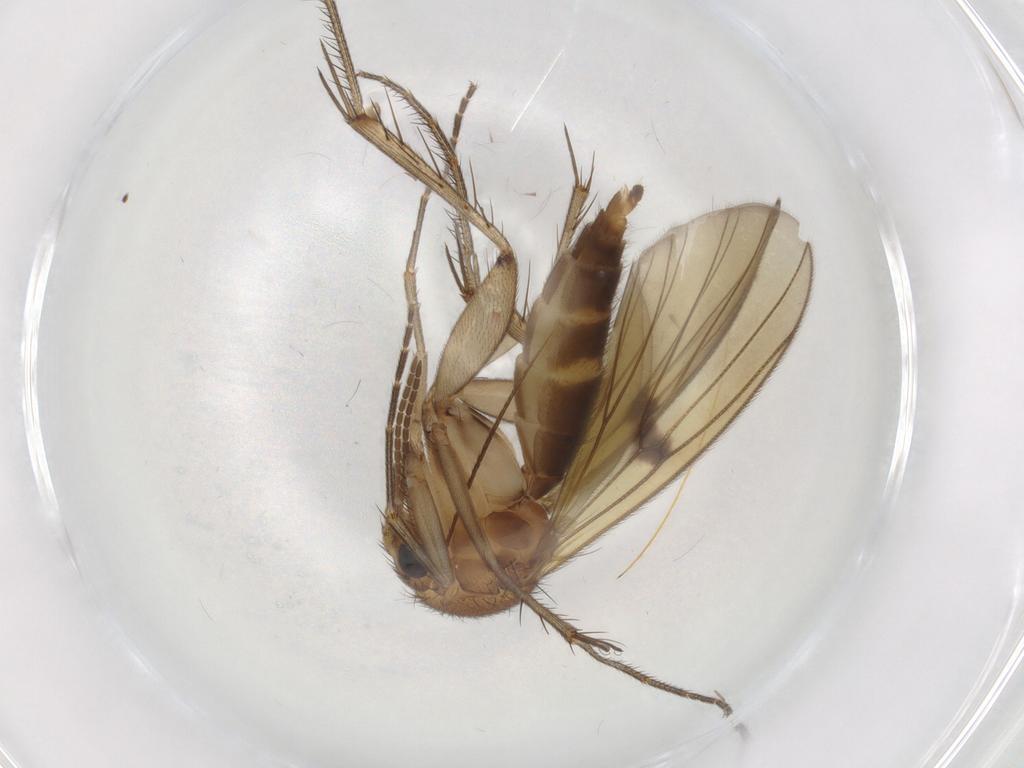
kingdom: Animalia
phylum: Arthropoda
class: Insecta
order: Diptera
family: Mycetophilidae
